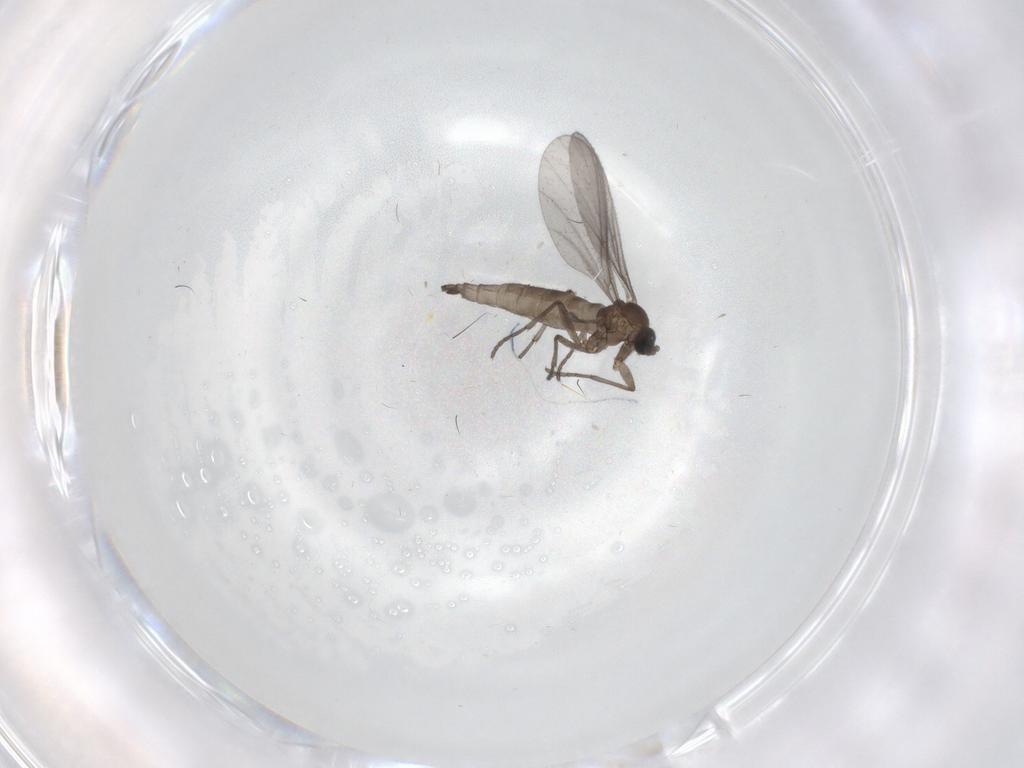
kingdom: Animalia
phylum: Arthropoda
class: Insecta
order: Diptera
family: Sciaridae
